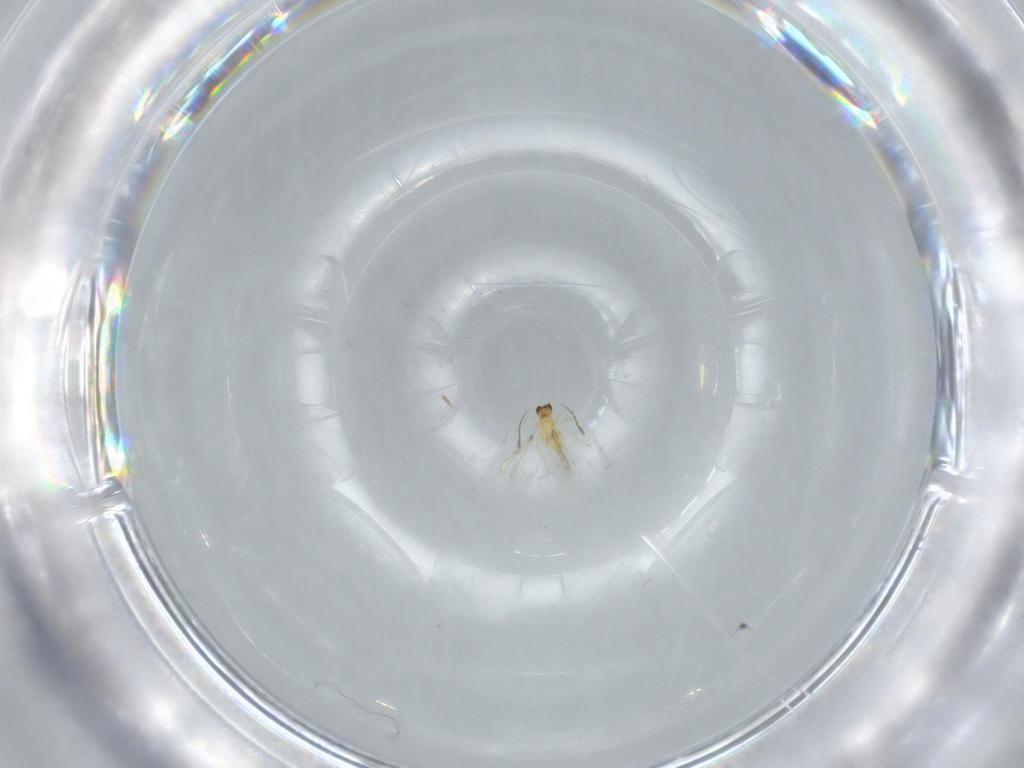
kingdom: Animalia
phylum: Arthropoda
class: Insecta
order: Hymenoptera
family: Mymaridae
